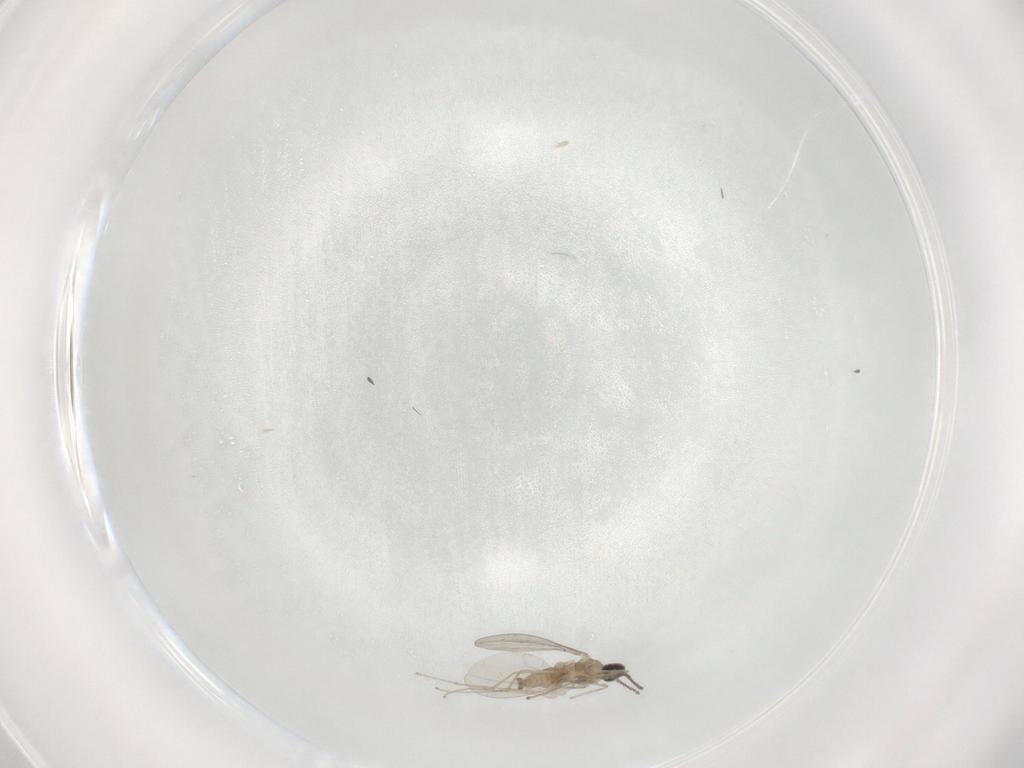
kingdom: Animalia
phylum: Arthropoda
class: Insecta
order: Diptera
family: Cecidomyiidae
